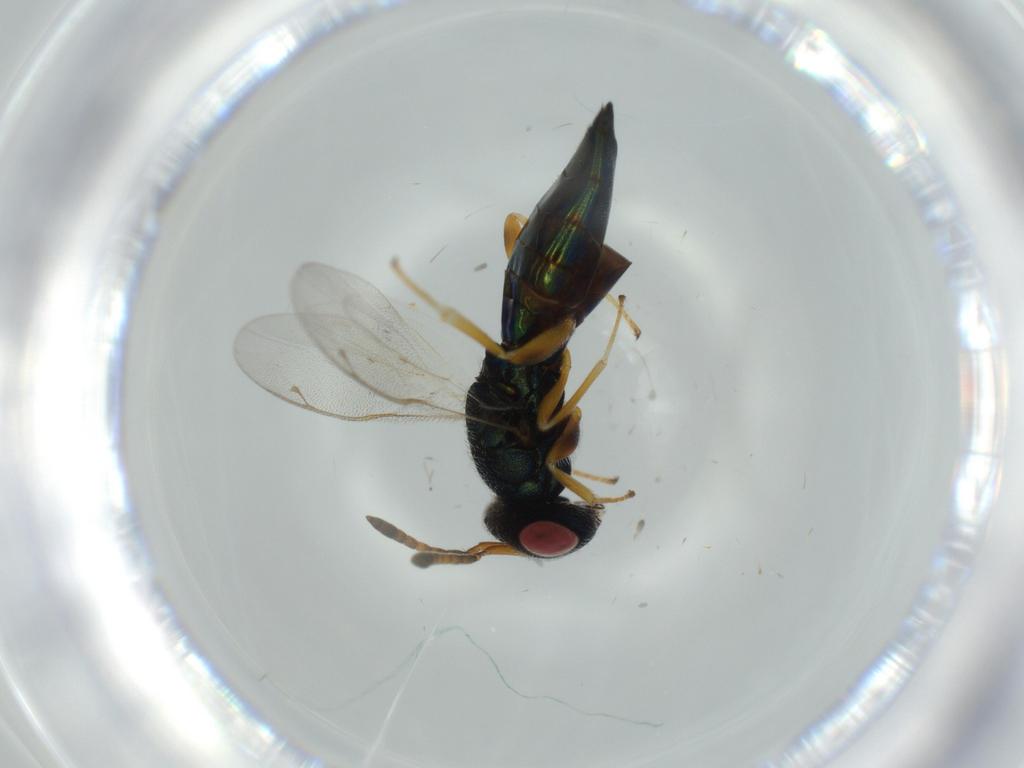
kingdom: Animalia
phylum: Arthropoda
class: Insecta
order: Hymenoptera
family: Pteromalidae
